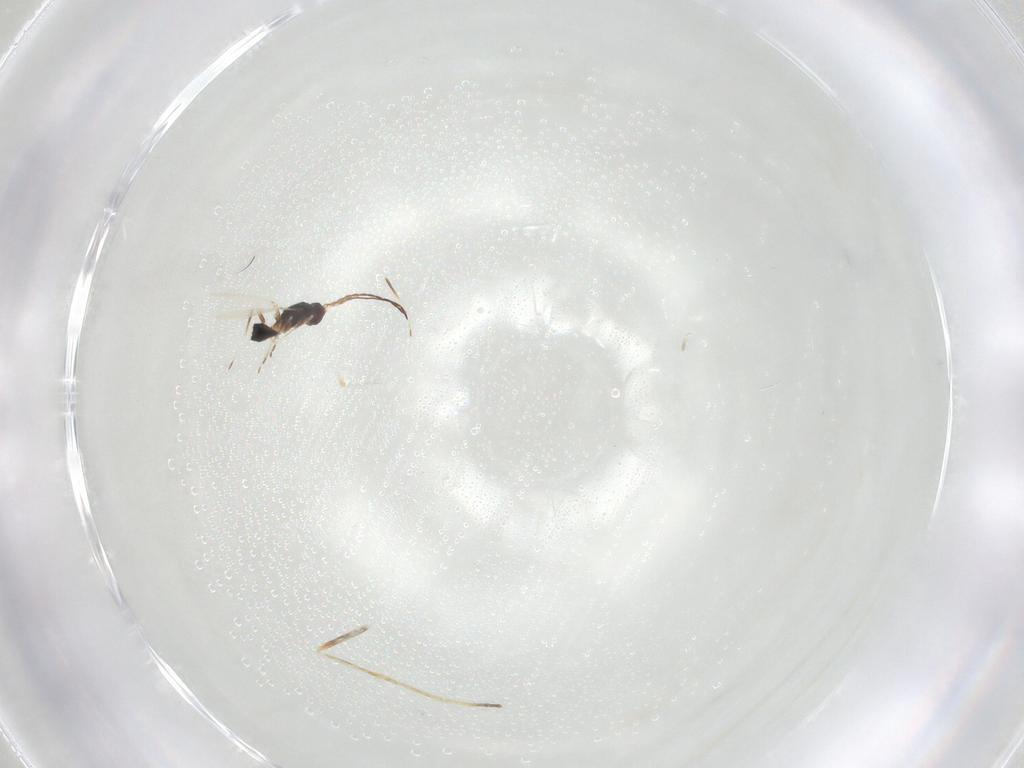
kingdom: Animalia
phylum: Arthropoda
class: Insecta
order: Hymenoptera
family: Mymaridae
